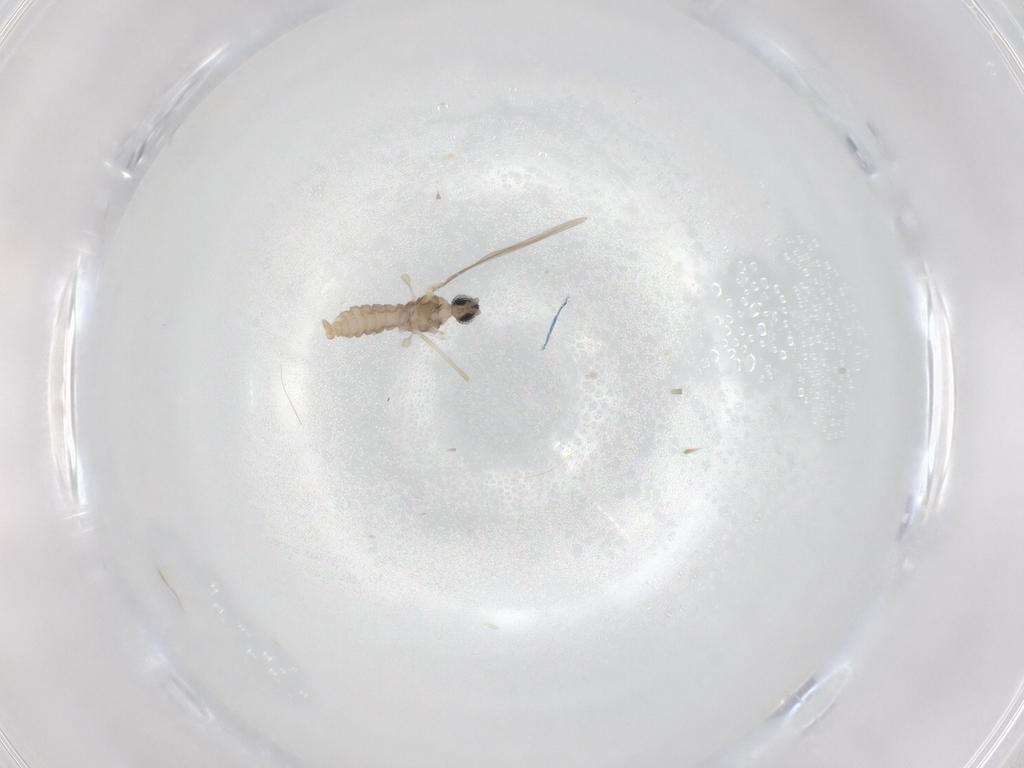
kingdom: Animalia
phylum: Arthropoda
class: Insecta
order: Diptera
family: Cecidomyiidae
